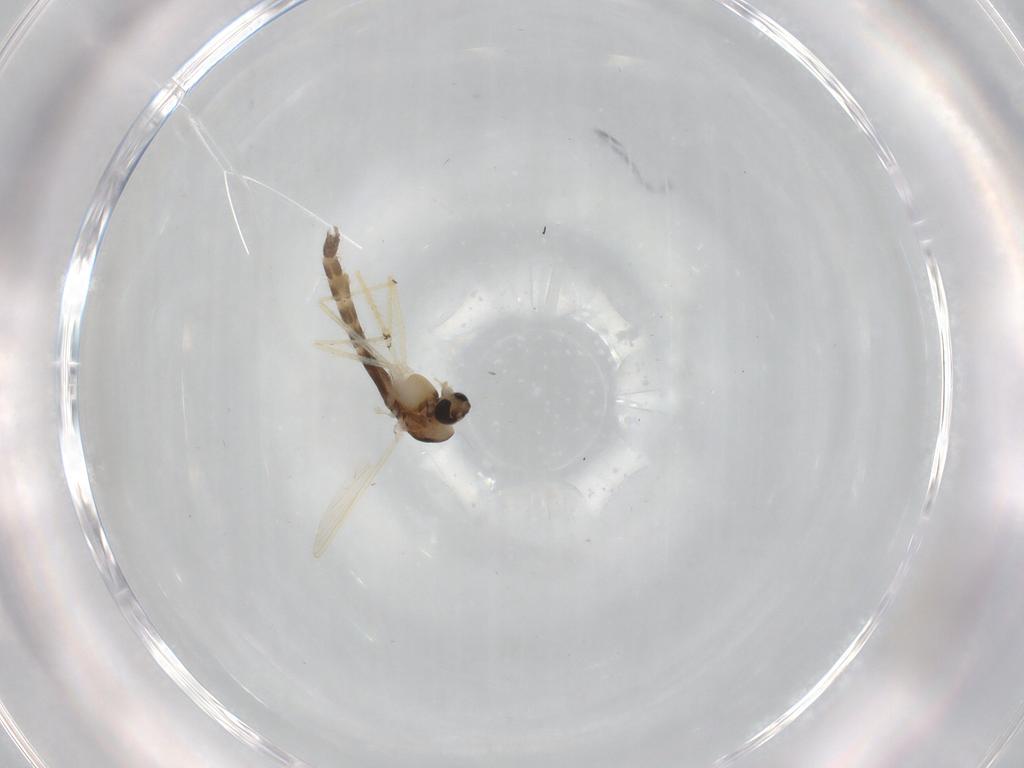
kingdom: Animalia
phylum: Arthropoda
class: Insecta
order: Diptera
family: Chironomidae
